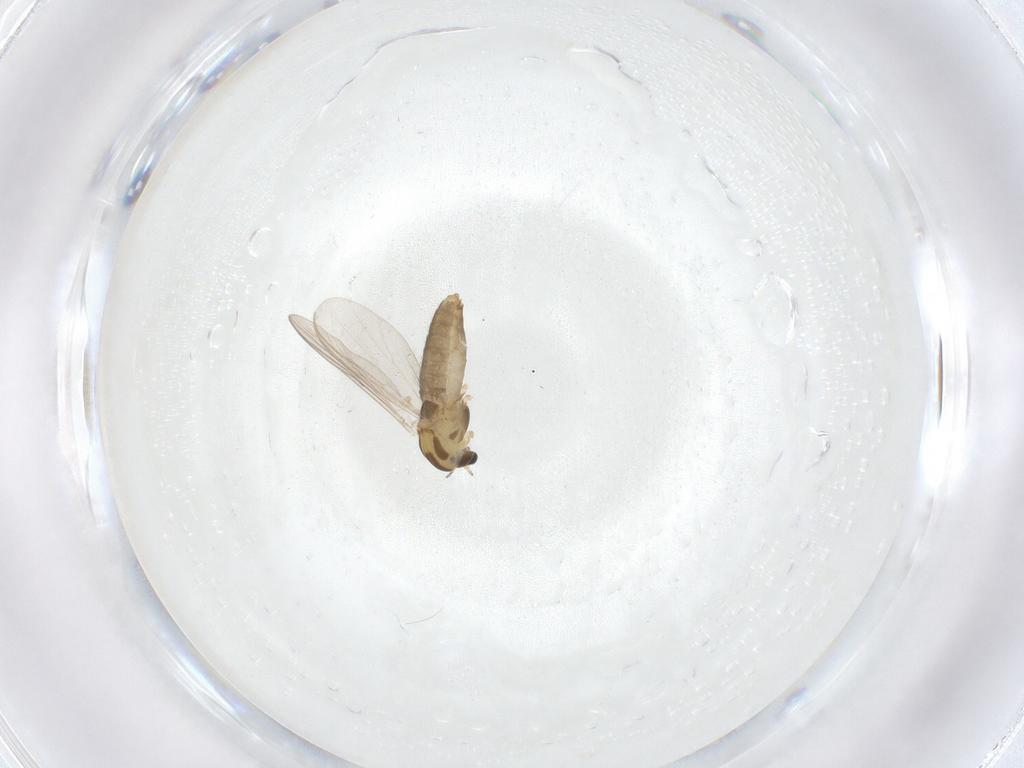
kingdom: Animalia
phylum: Arthropoda
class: Insecta
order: Diptera
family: Chironomidae
